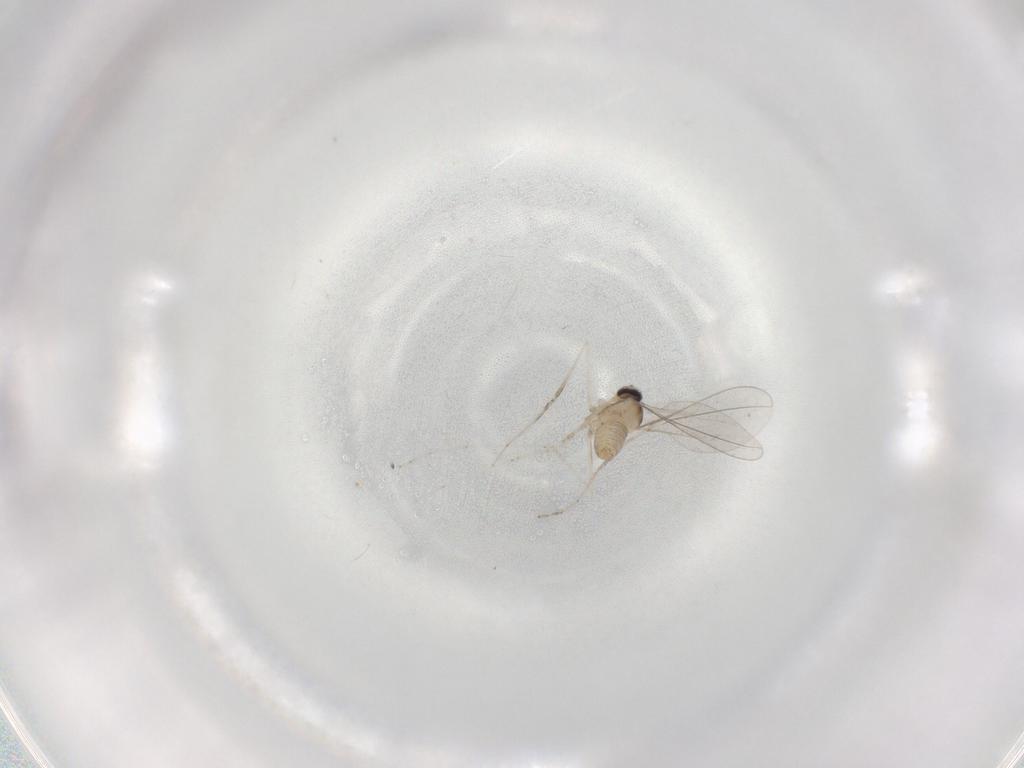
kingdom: Animalia
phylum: Arthropoda
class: Insecta
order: Diptera
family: Cecidomyiidae
